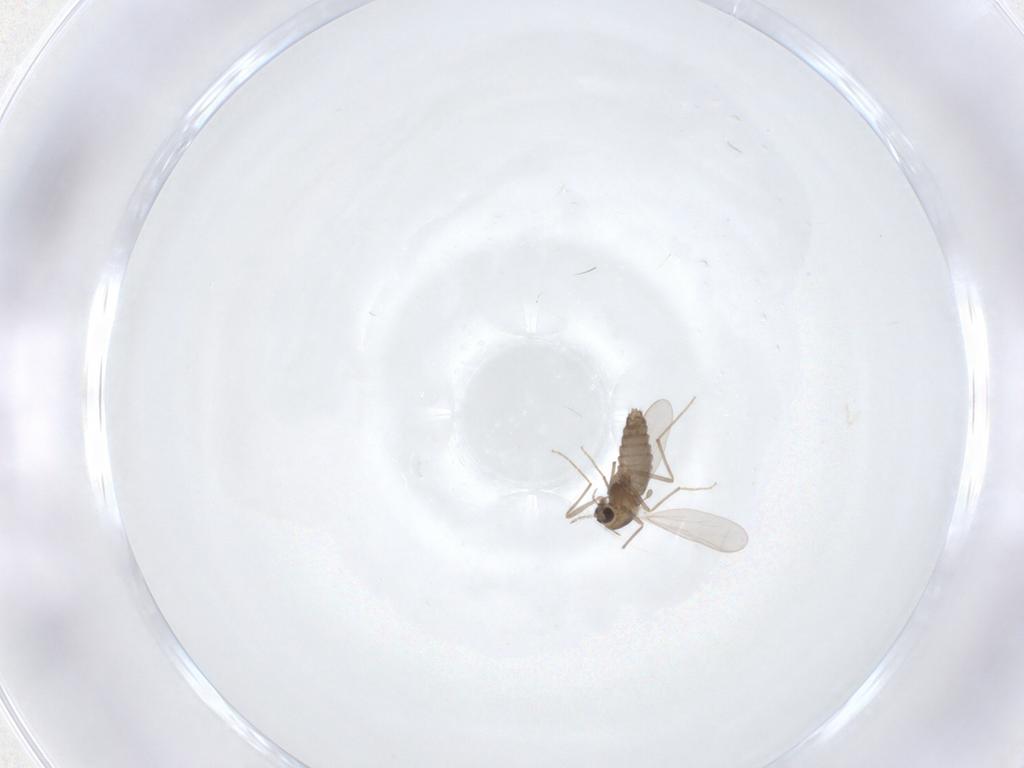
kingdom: Animalia
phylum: Arthropoda
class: Insecta
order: Diptera
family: Chironomidae
